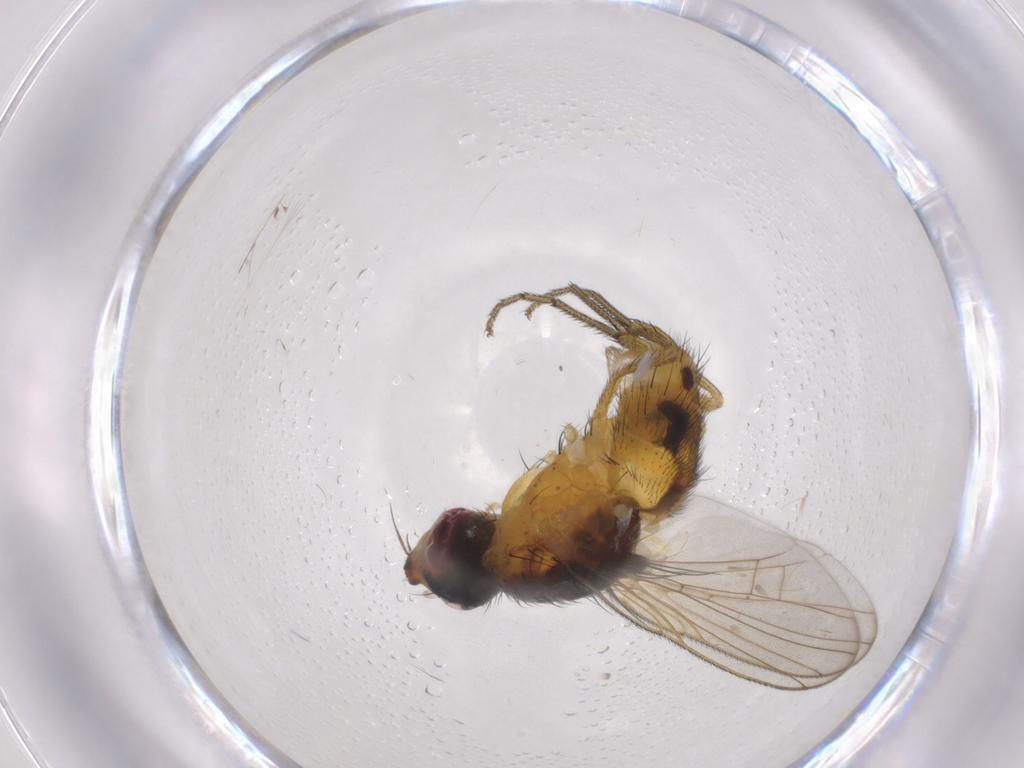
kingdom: Animalia
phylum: Arthropoda
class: Insecta
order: Diptera
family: Muscidae
